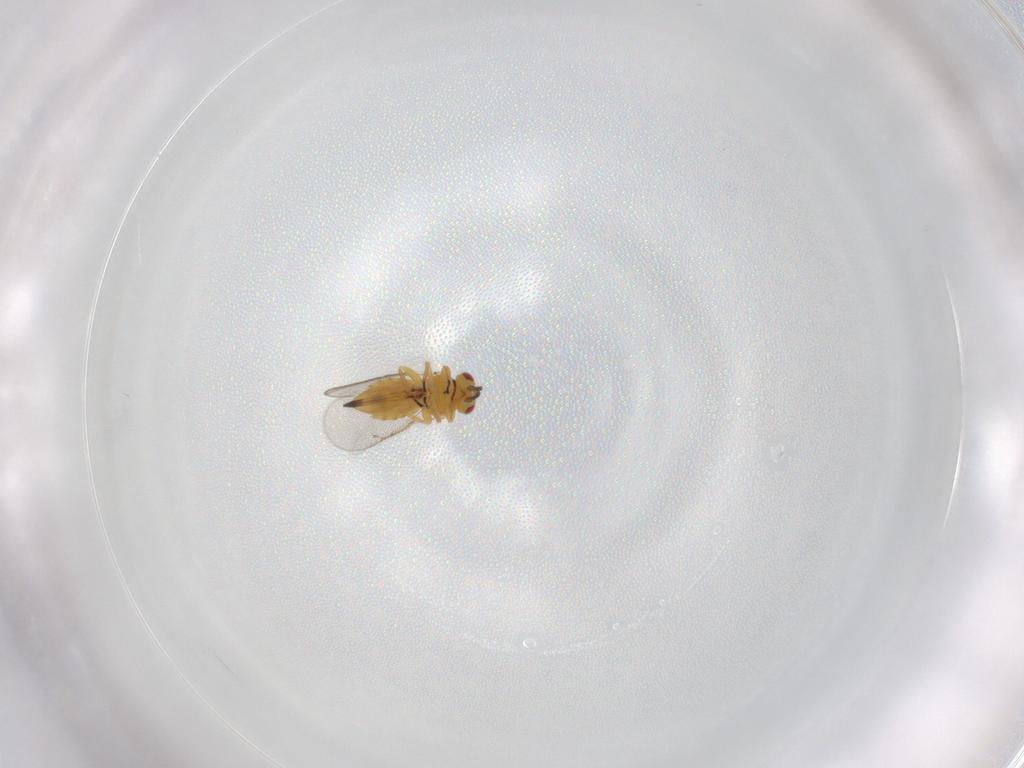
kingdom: Animalia
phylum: Arthropoda
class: Insecta
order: Hymenoptera
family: Eulophidae
